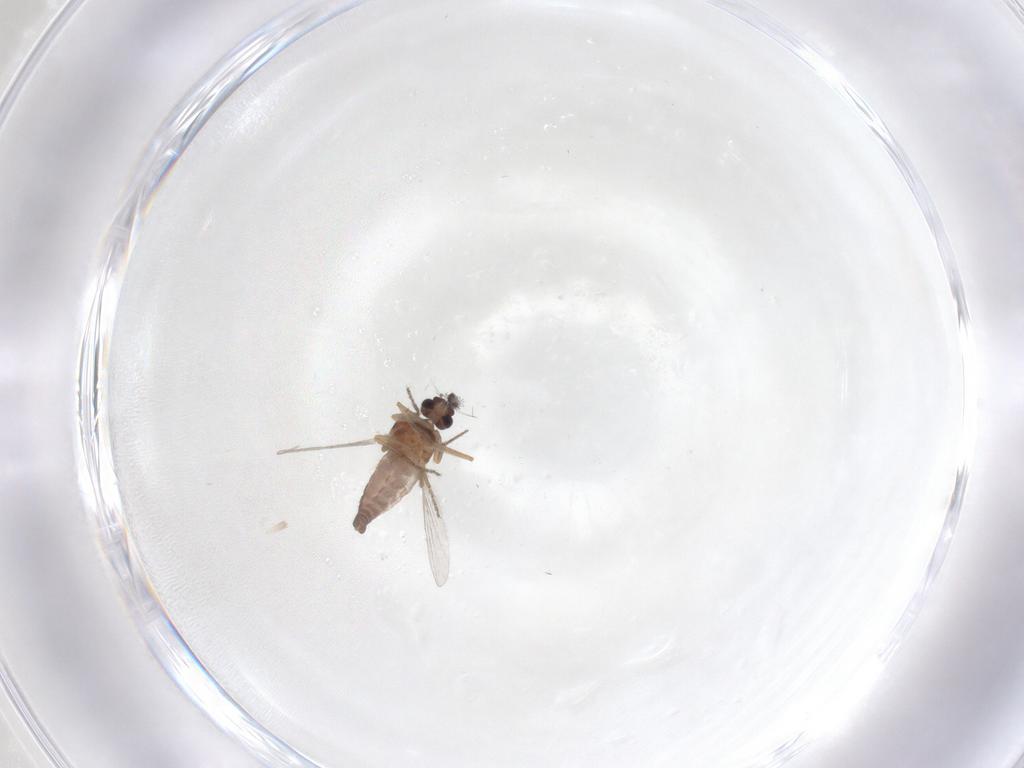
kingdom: Animalia
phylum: Arthropoda
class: Insecta
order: Diptera
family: Ceratopogonidae
